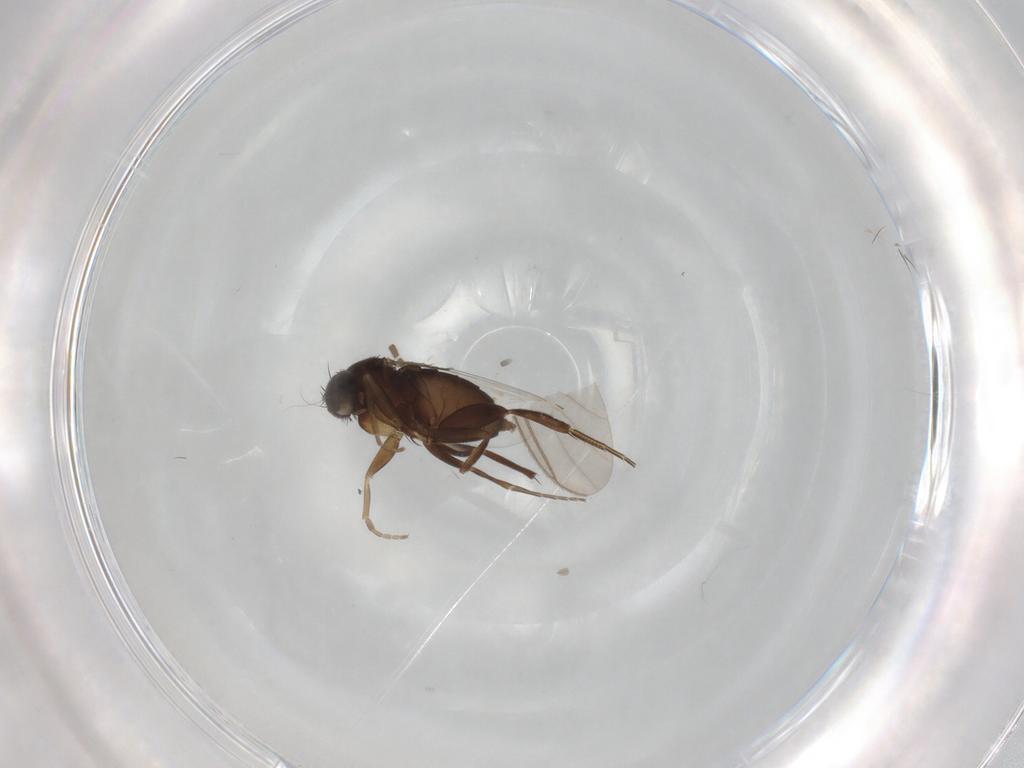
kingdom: Animalia
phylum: Arthropoda
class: Insecta
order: Diptera
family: Phoridae
